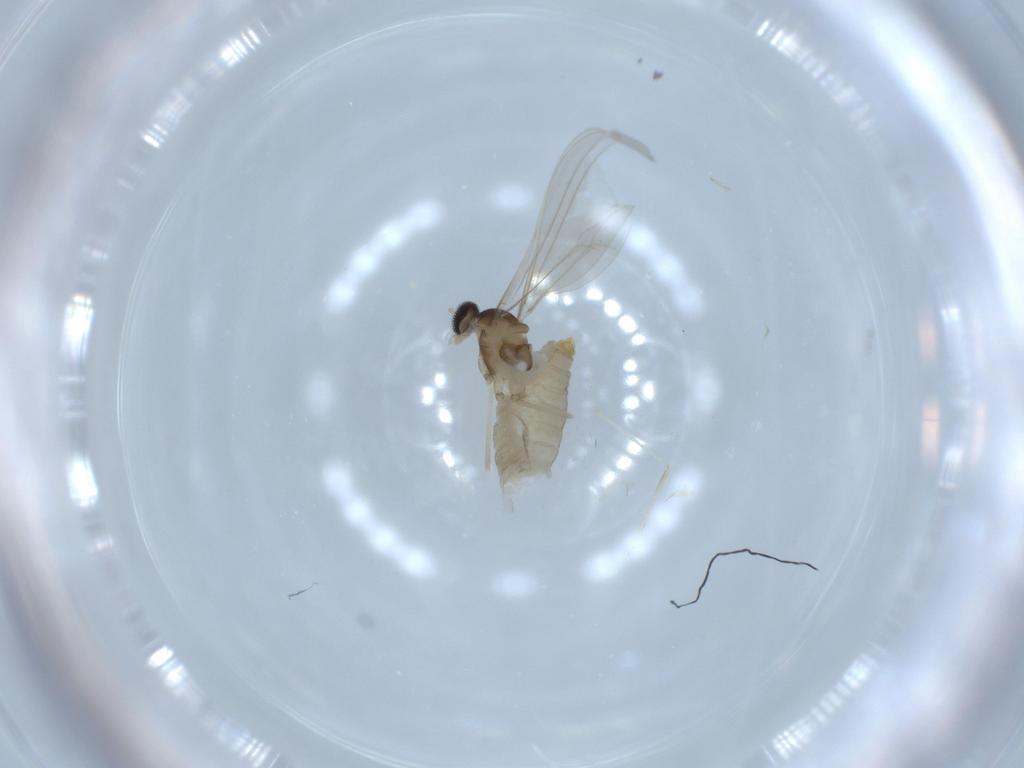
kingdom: Animalia
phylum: Arthropoda
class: Insecta
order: Diptera
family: Cecidomyiidae
